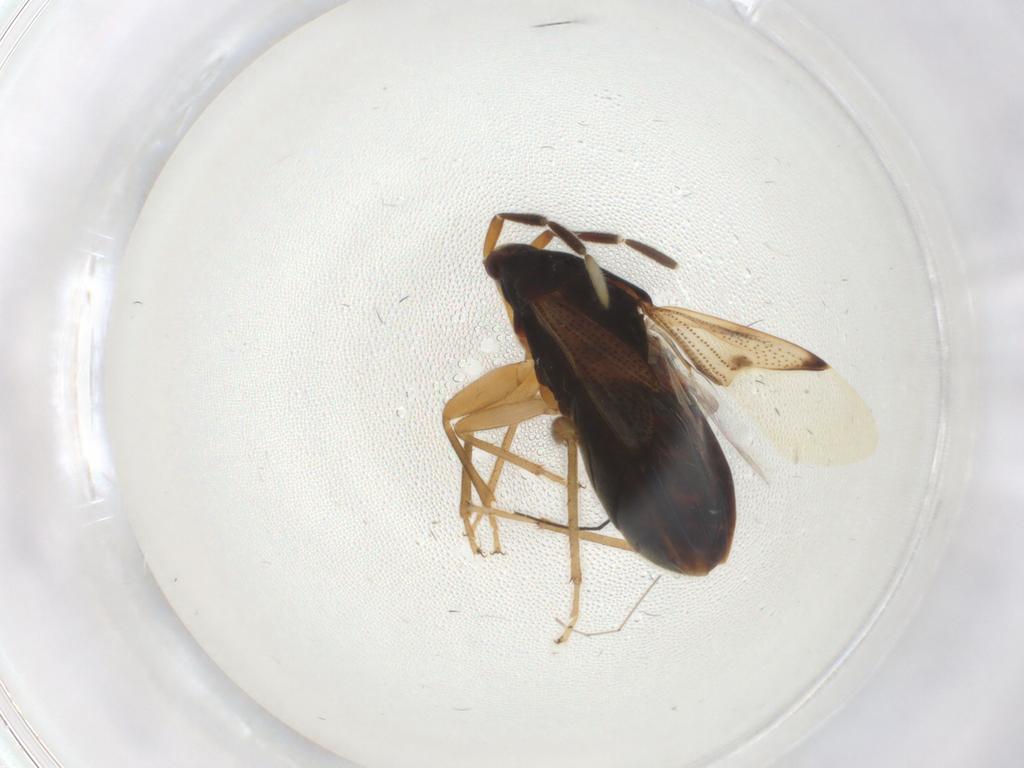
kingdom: Animalia
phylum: Arthropoda
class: Insecta
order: Hemiptera
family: Rhyparochromidae
